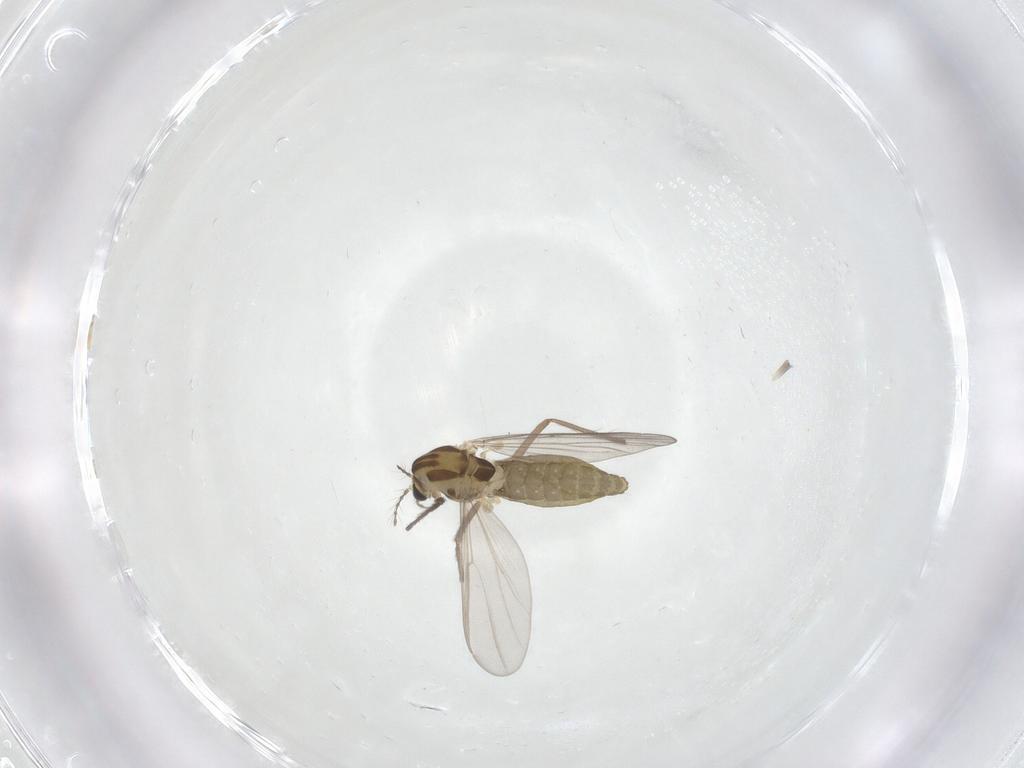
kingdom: Animalia
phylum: Arthropoda
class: Insecta
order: Diptera
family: Chironomidae
